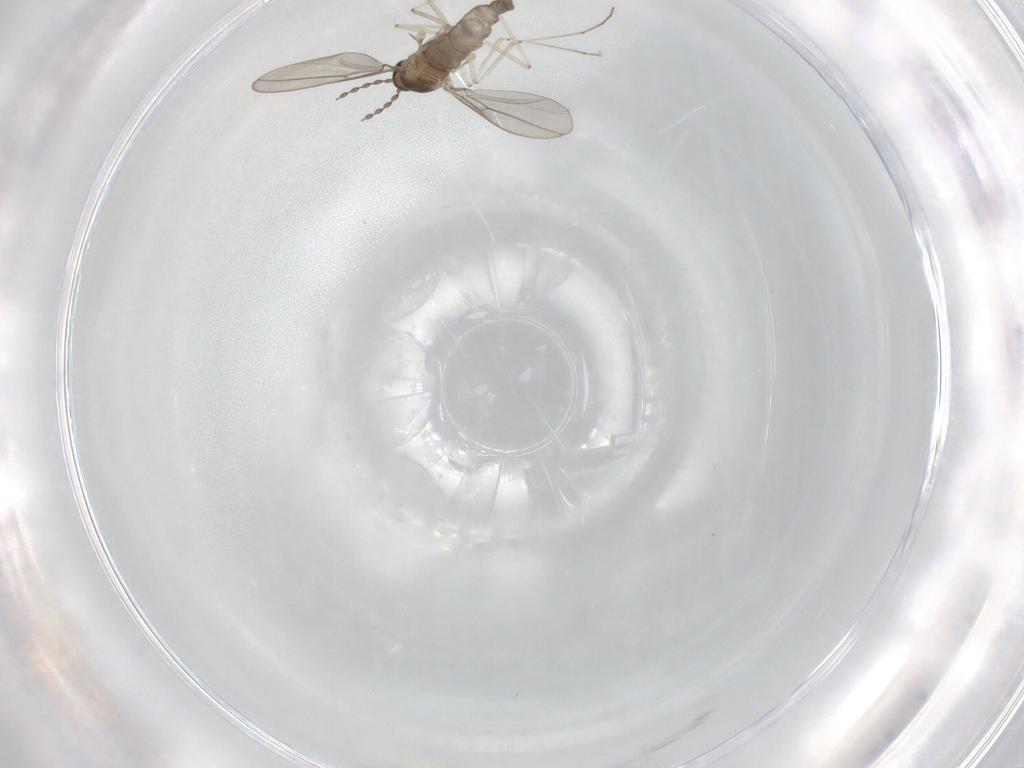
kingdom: Animalia
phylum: Arthropoda
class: Insecta
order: Diptera
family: Cecidomyiidae
